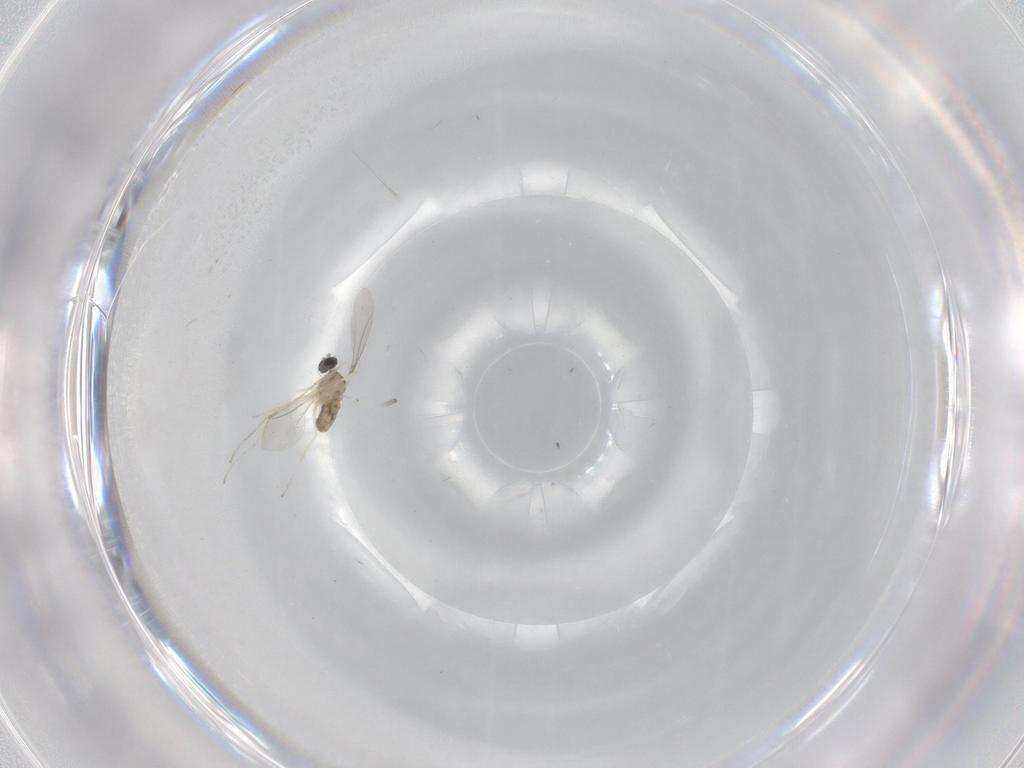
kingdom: Animalia
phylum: Arthropoda
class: Insecta
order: Diptera
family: Cecidomyiidae
